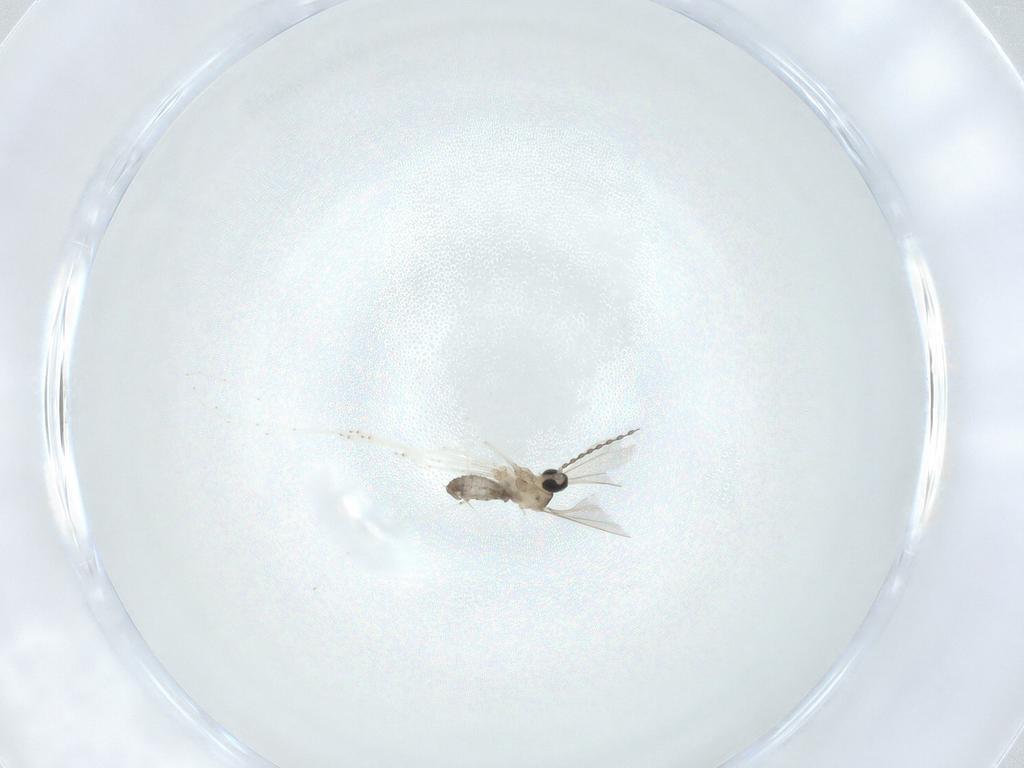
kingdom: Animalia
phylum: Arthropoda
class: Insecta
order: Diptera
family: Cecidomyiidae
